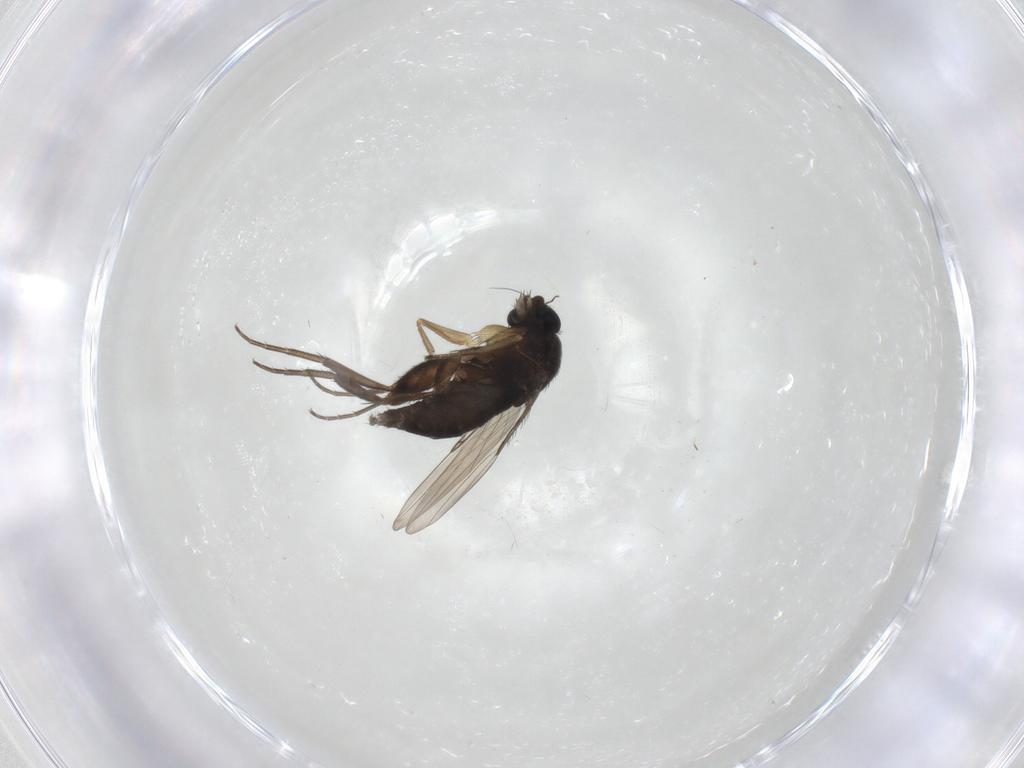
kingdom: Animalia
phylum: Arthropoda
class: Insecta
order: Diptera
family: Phoridae
